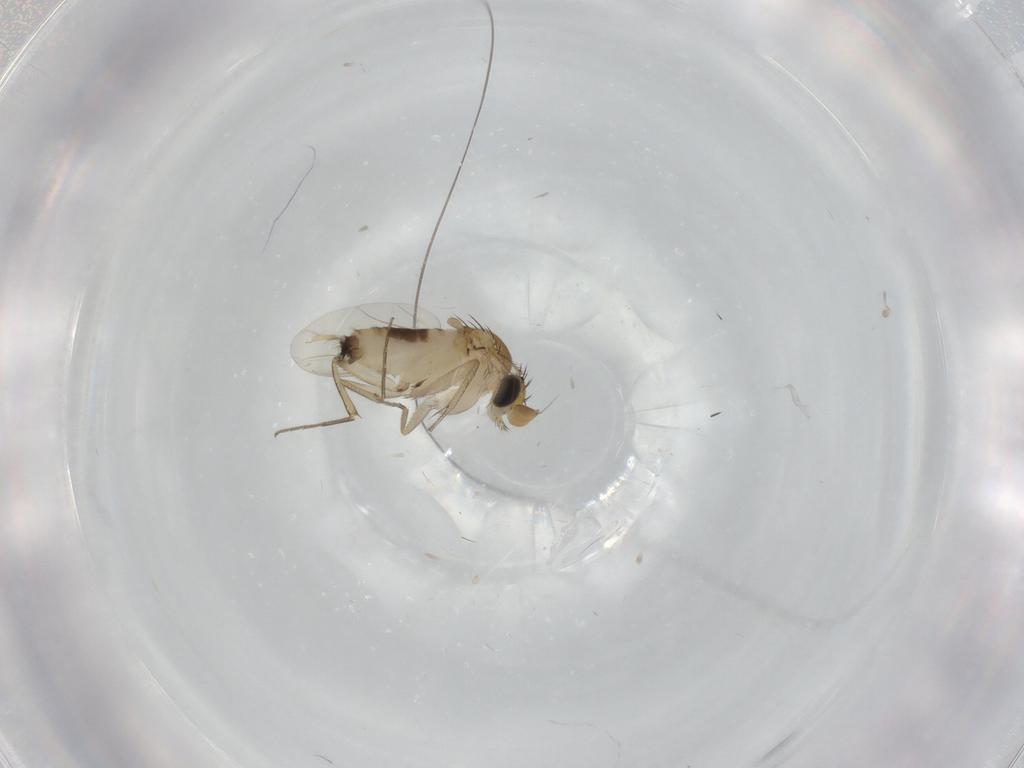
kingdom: Animalia
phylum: Arthropoda
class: Insecta
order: Diptera
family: Phoridae
